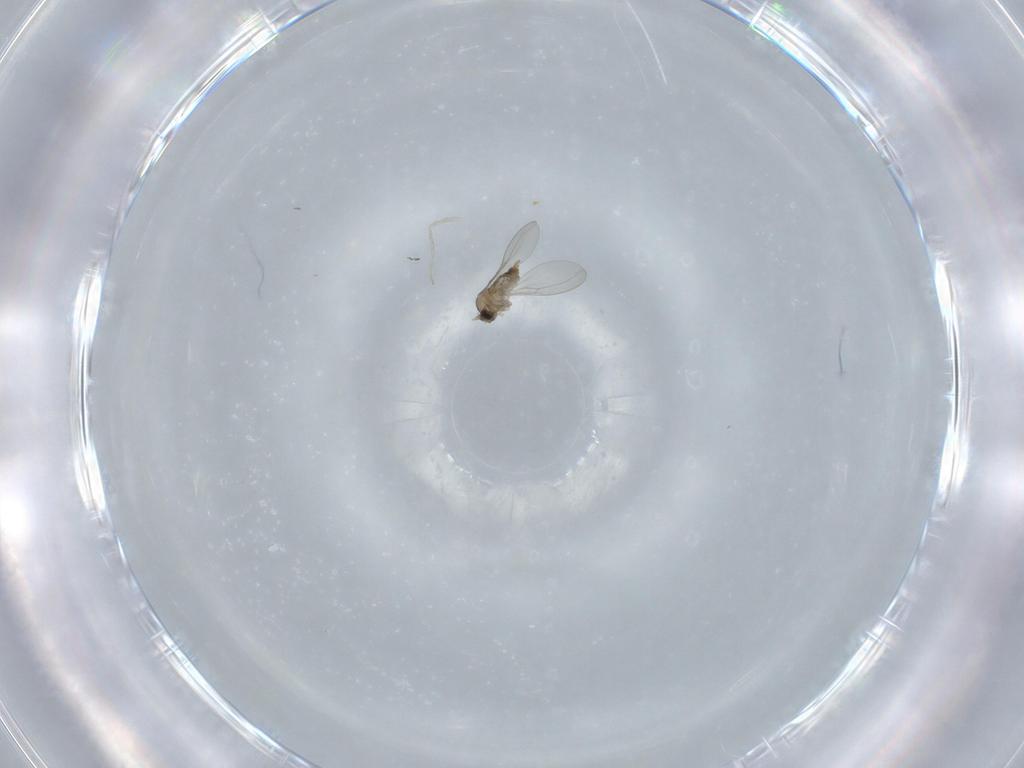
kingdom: Animalia
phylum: Arthropoda
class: Insecta
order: Diptera
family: Cecidomyiidae
